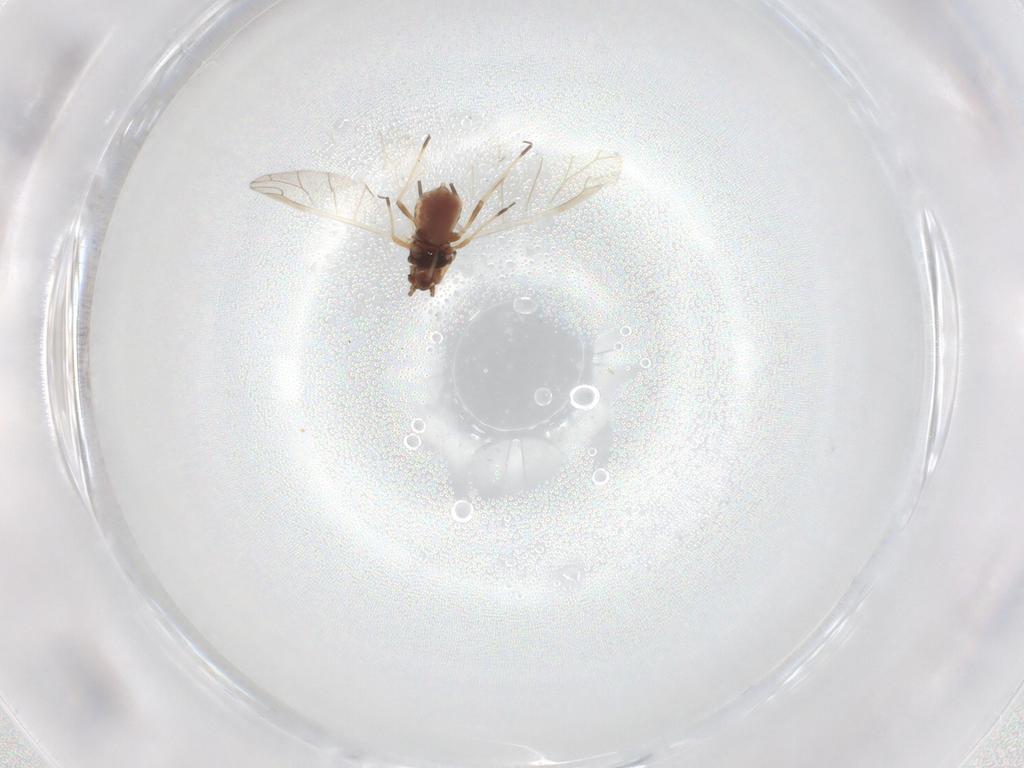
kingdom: Animalia
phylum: Arthropoda
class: Insecta
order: Hemiptera
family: Aphididae
